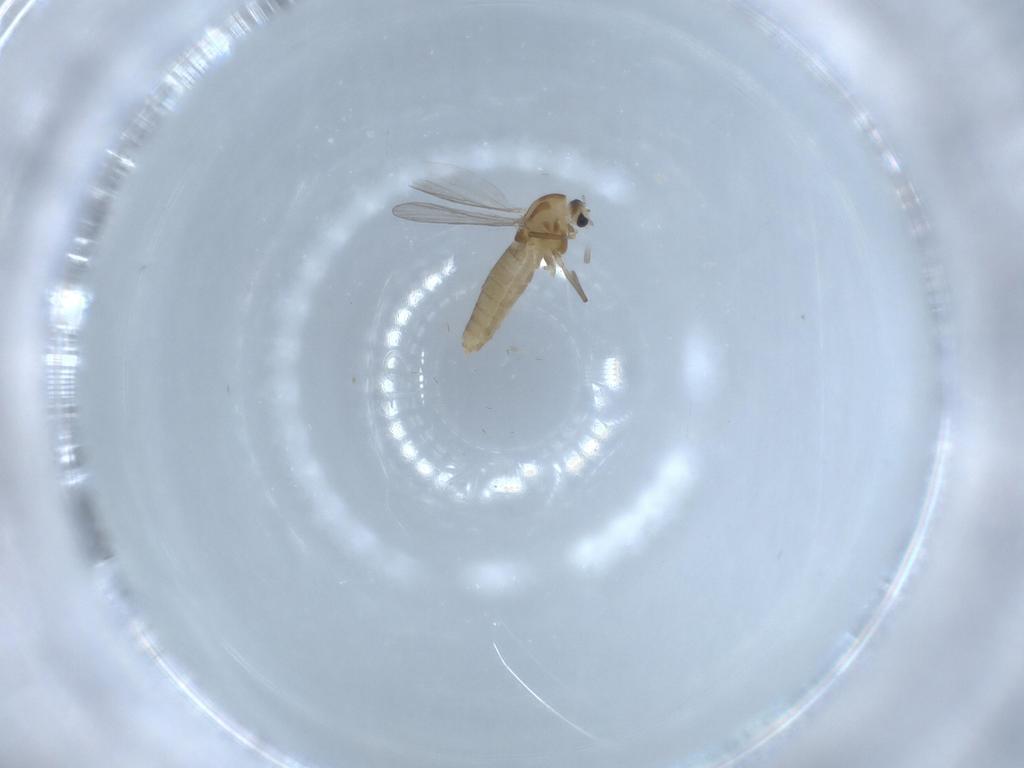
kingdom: Animalia
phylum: Arthropoda
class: Insecta
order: Diptera
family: Chironomidae
